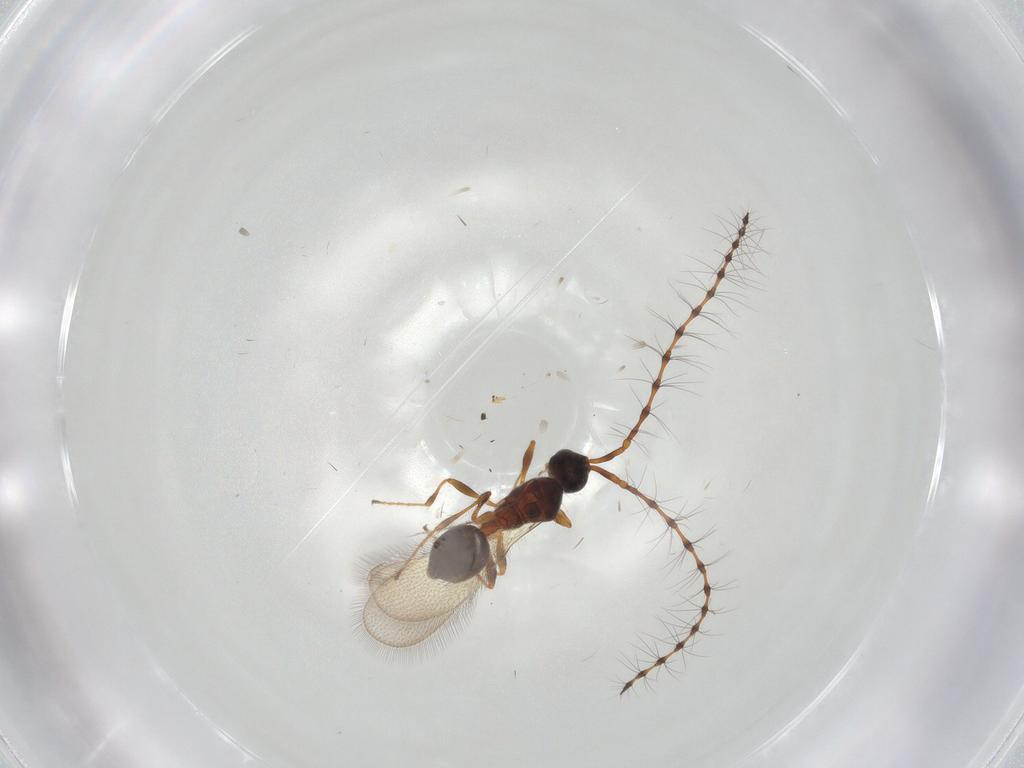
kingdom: Animalia
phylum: Arthropoda
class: Insecta
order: Hymenoptera
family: Diapriidae
